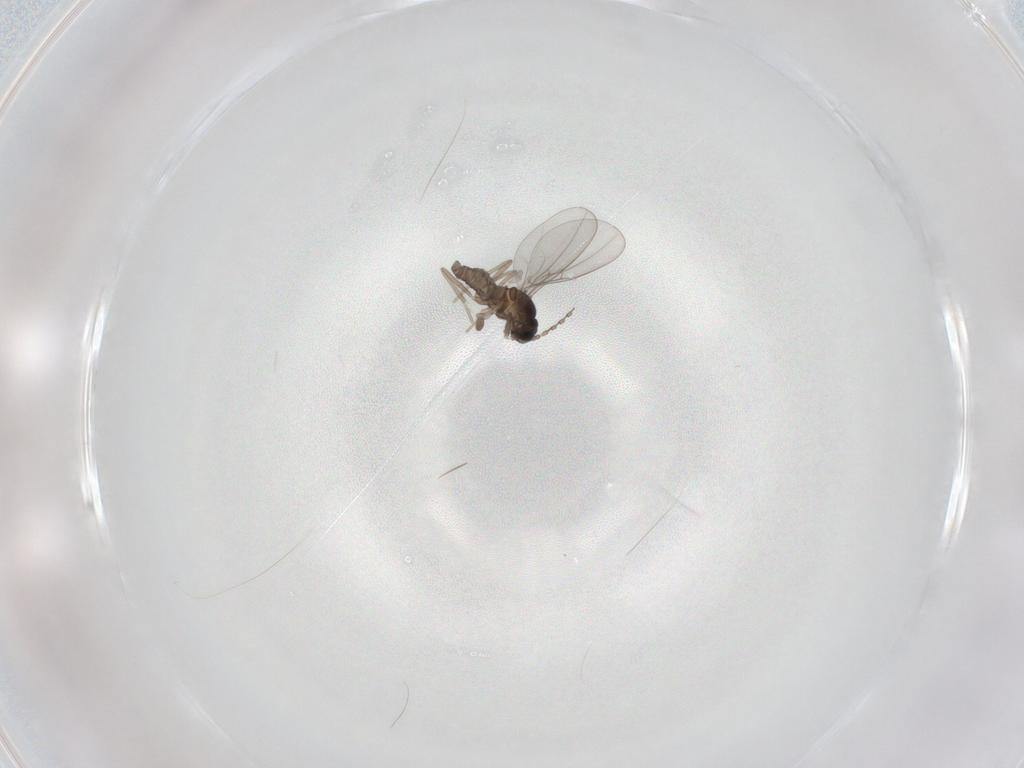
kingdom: Animalia
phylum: Arthropoda
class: Insecta
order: Diptera
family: Cecidomyiidae
